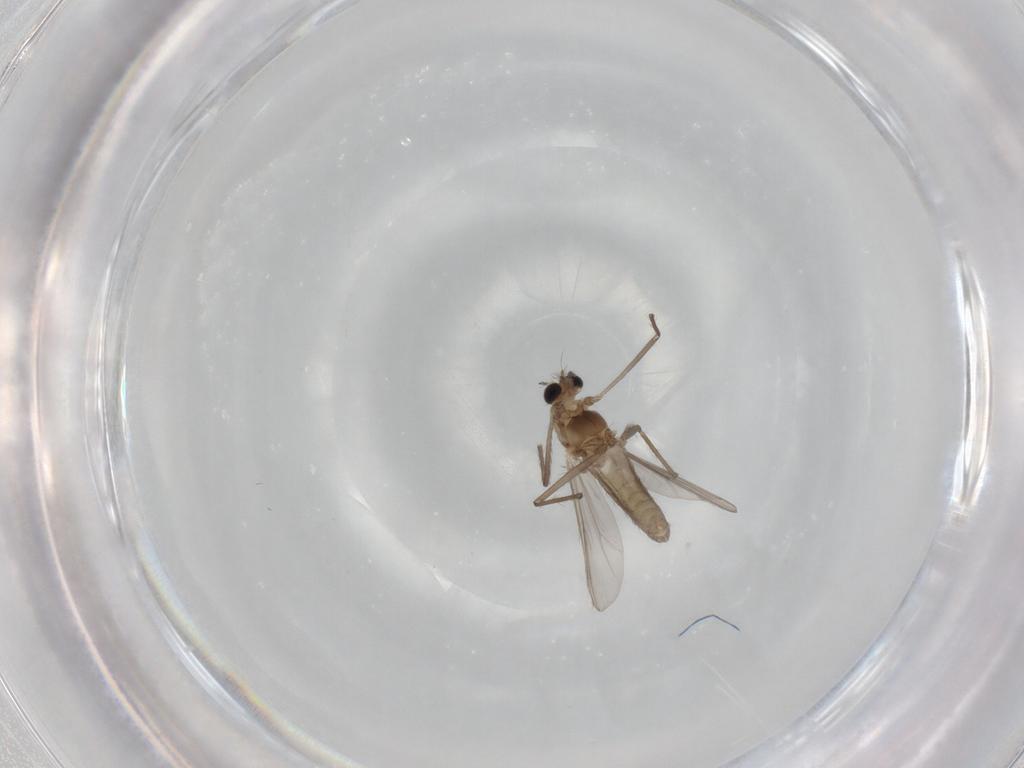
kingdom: Animalia
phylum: Arthropoda
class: Insecta
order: Diptera
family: Chironomidae
